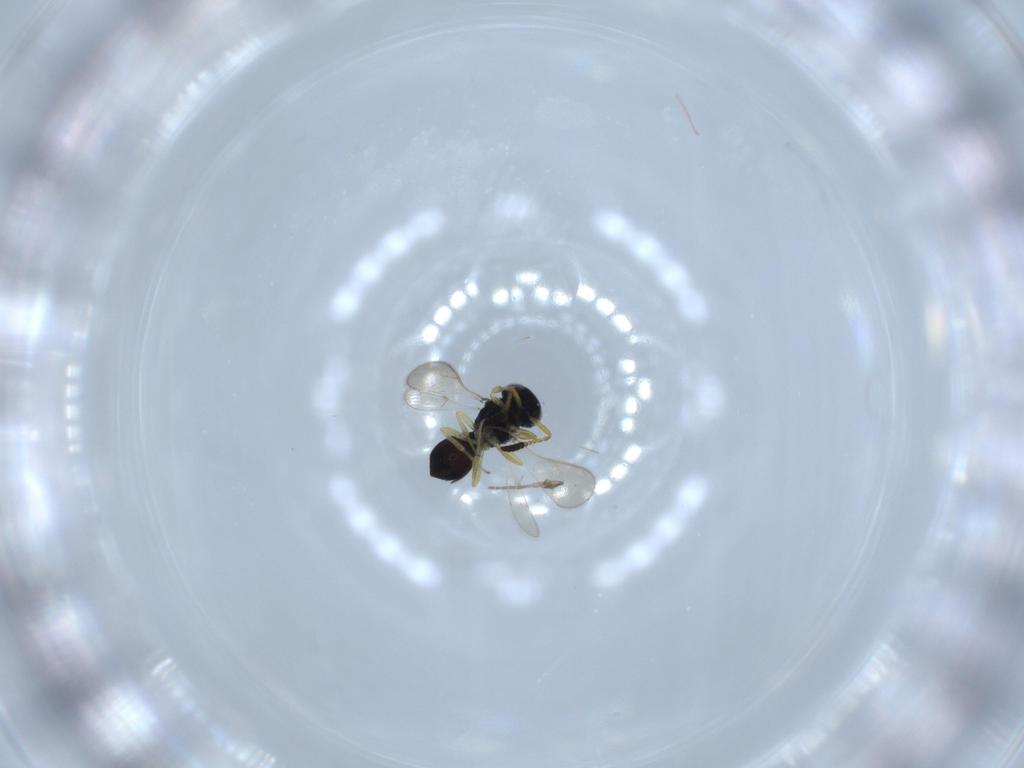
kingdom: Animalia
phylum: Arthropoda
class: Insecta
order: Hymenoptera
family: Scelionidae
